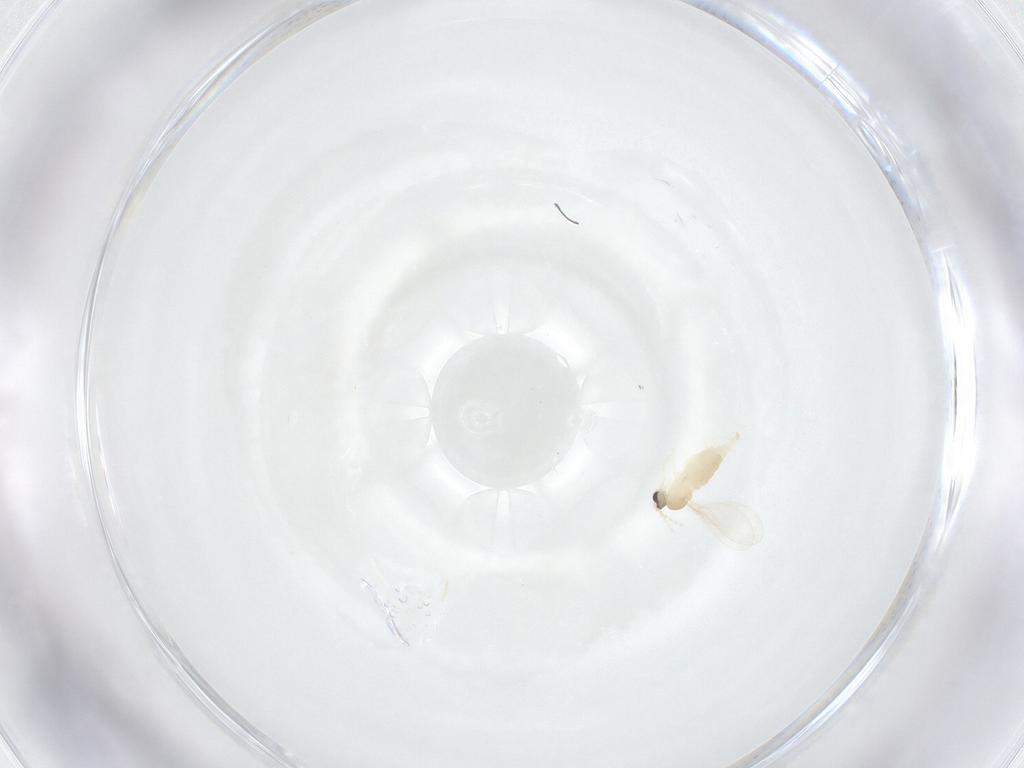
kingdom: Animalia
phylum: Arthropoda
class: Insecta
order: Diptera
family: Cecidomyiidae
